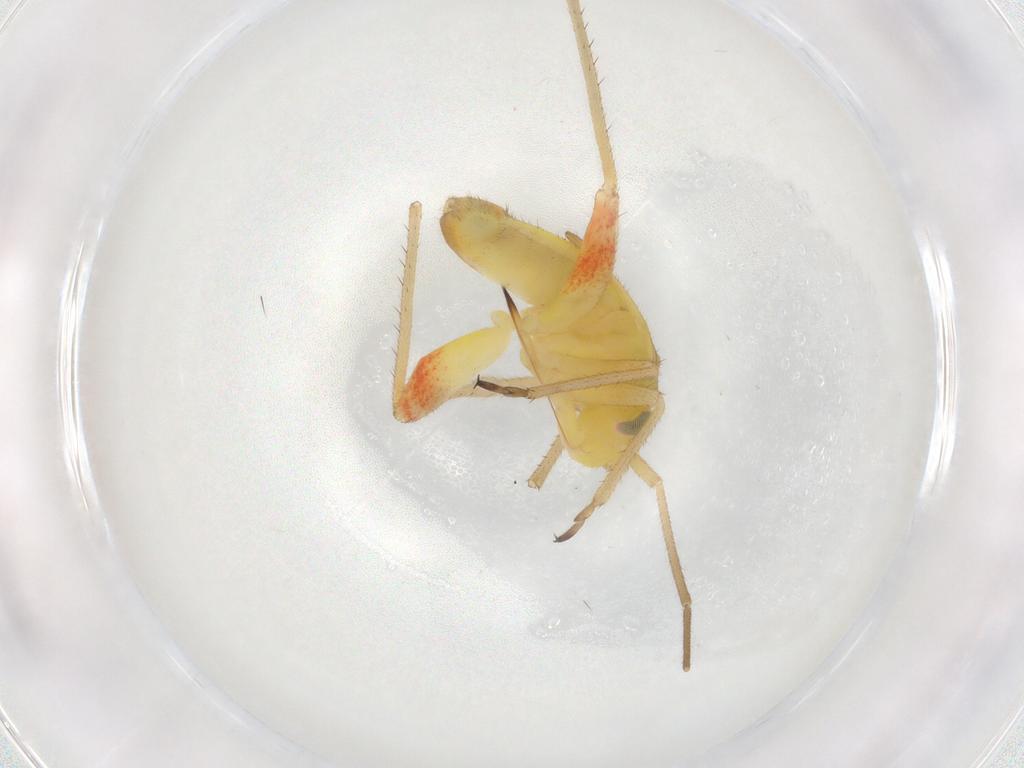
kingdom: Animalia
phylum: Arthropoda
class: Insecta
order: Hemiptera
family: Miridae
